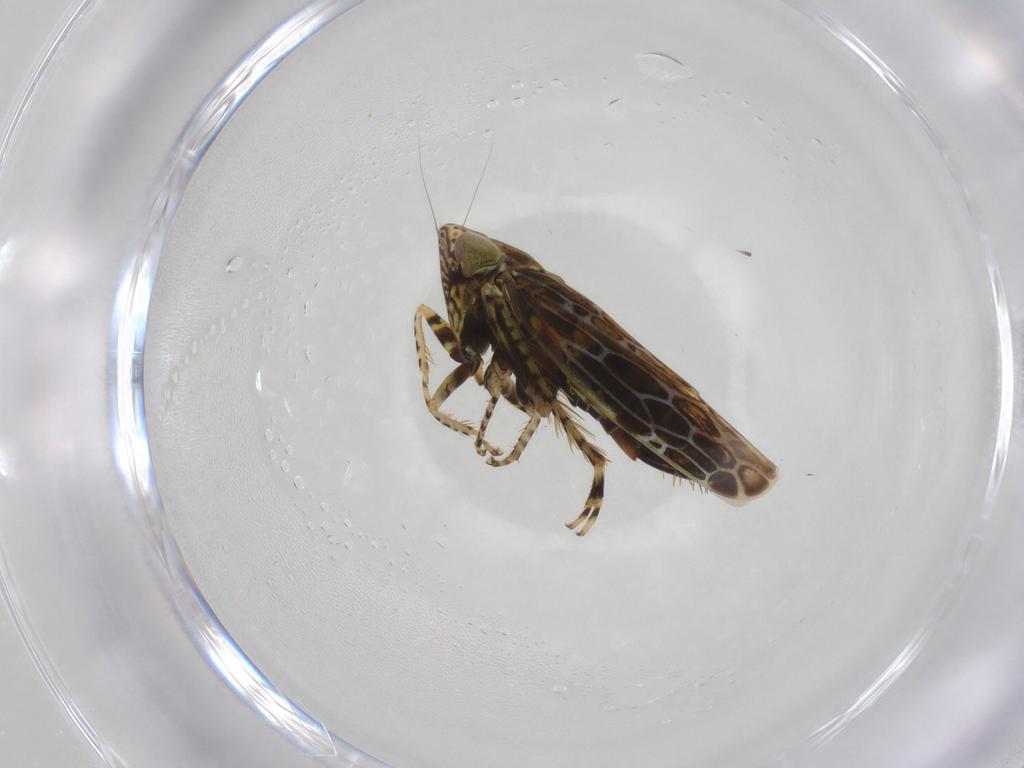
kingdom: Animalia
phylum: Arthropoda
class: Insecta
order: Hemiptera
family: Cicadellidae
